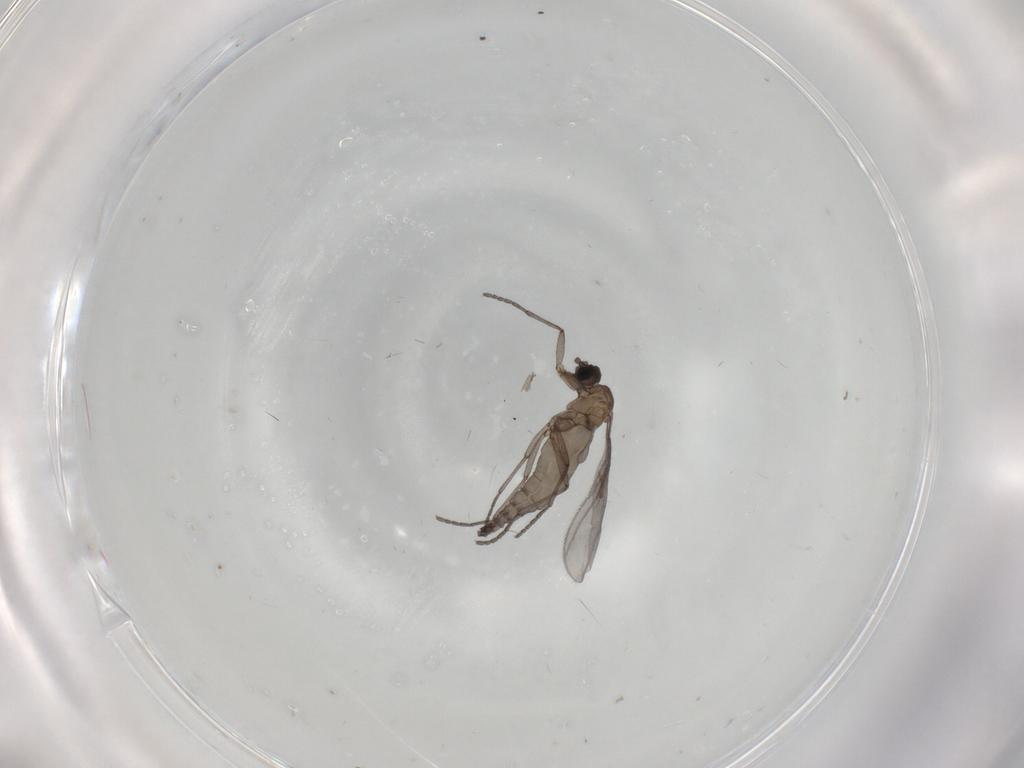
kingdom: Animalia
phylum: Arthropoda
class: Insecta
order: Diptera
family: Sciaridae
